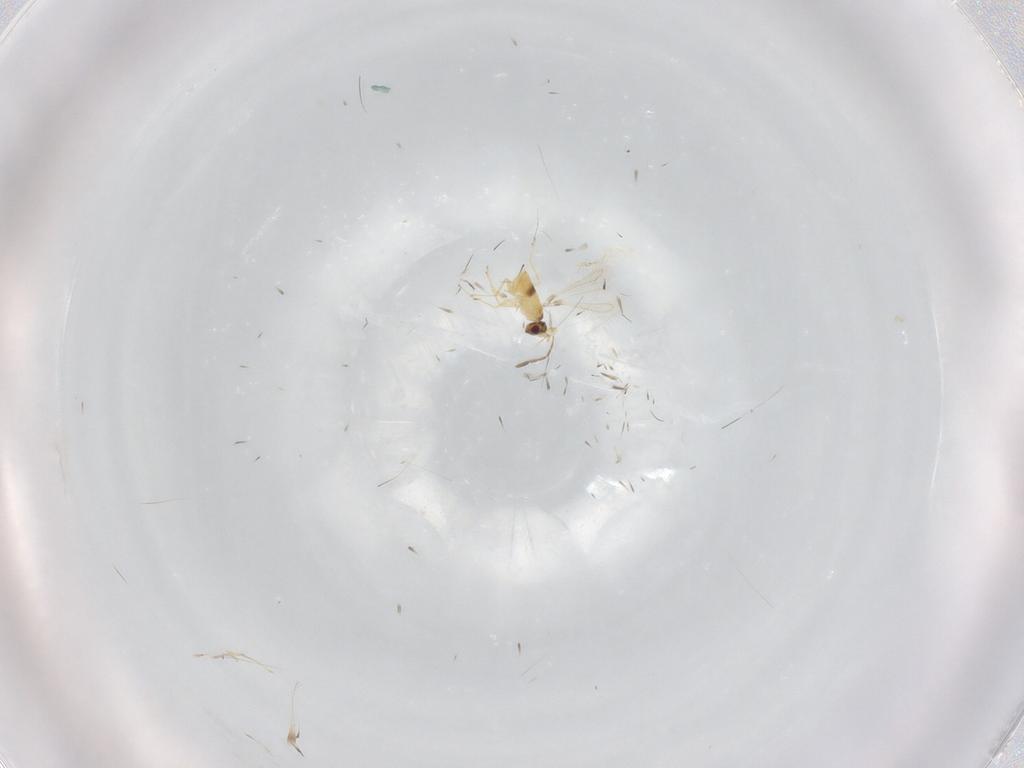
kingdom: Animalia
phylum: Arthropoda
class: Insecta
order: Hymenoptera
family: Mymaridae
